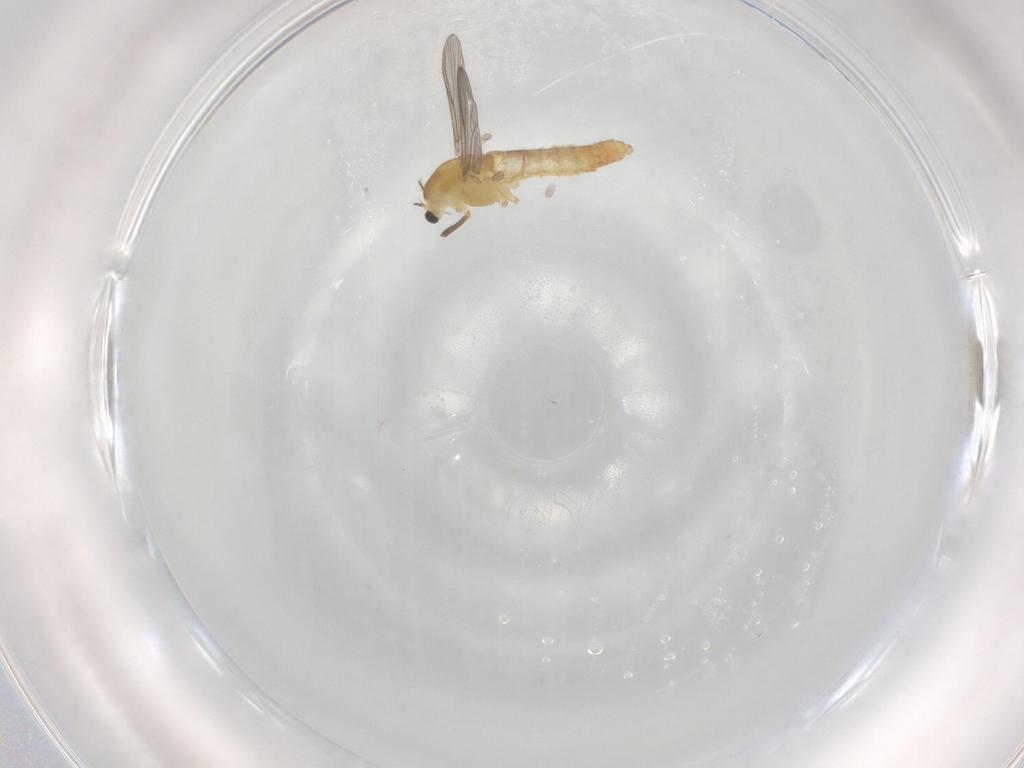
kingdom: Animalia
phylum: Arthropoda
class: Insecta
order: Diptera
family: Chironomidae
